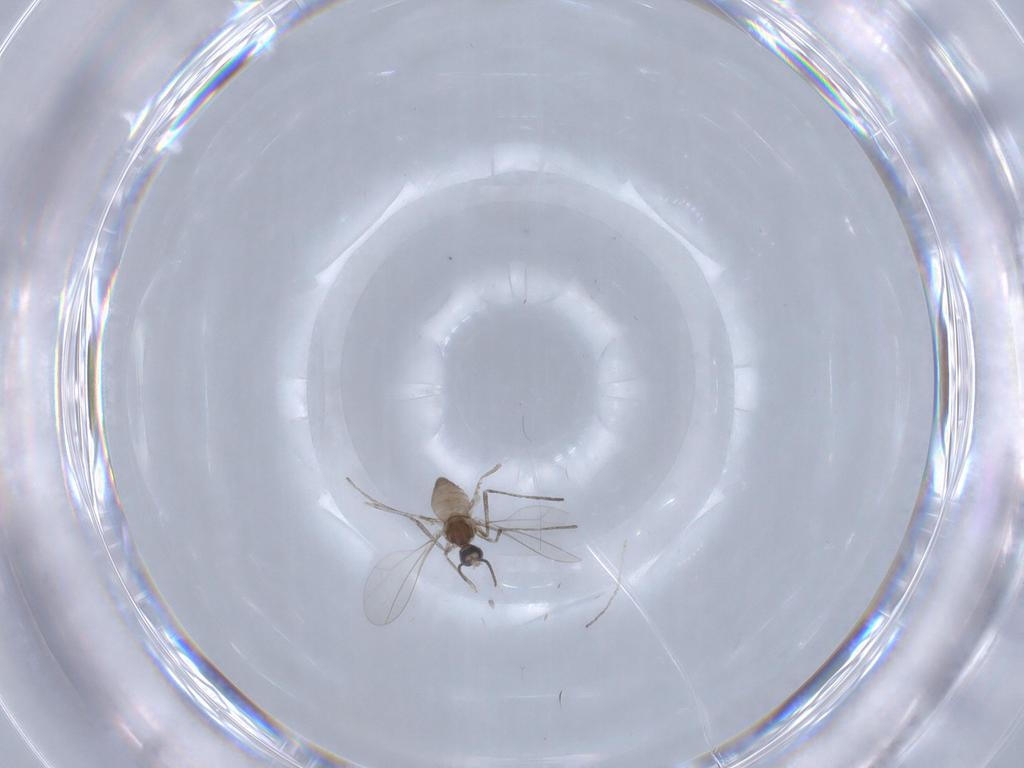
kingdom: Animalia
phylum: Arthropoda
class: Insecta
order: Diptera
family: Cecidomyiidae
